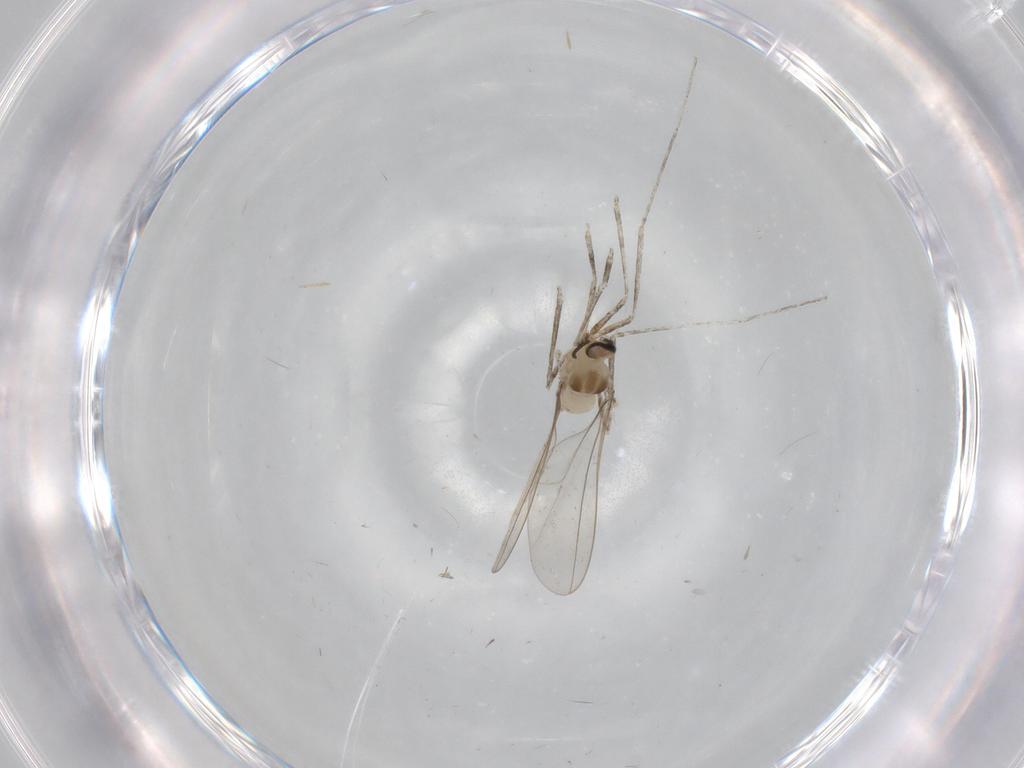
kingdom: Animalia
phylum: Arthropoda
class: Insecta
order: Diptera
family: Cecidomyiidae
